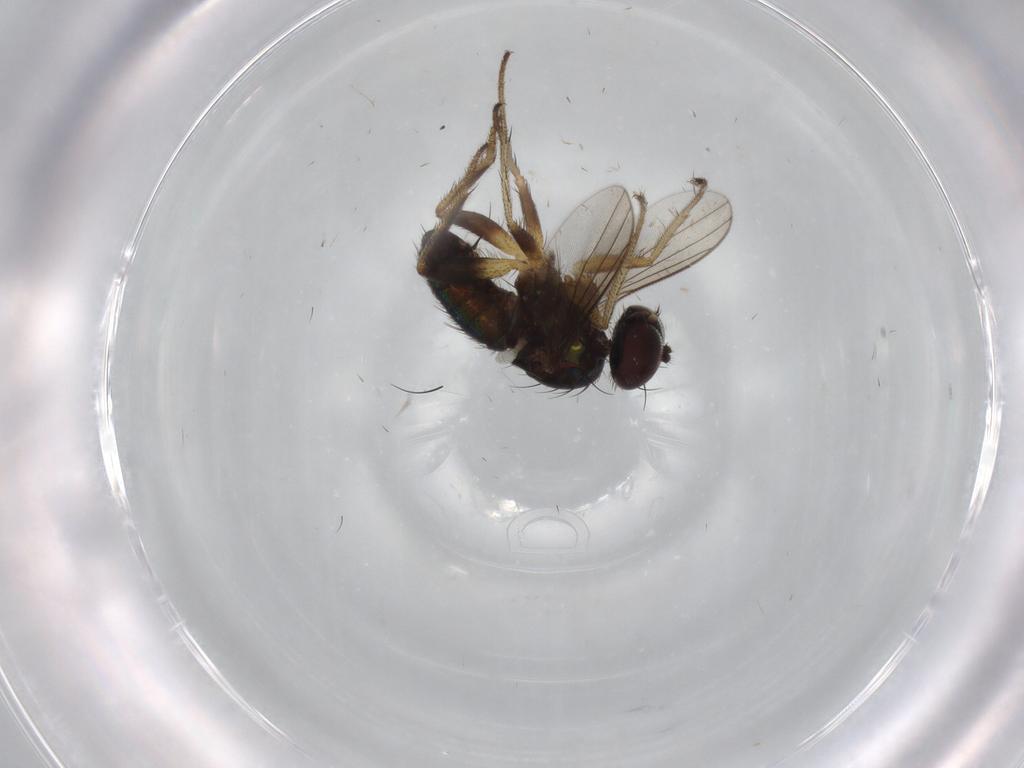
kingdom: Animalia
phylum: Arthropoda
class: Insecta
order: Diptera
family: Dolichopodidae
